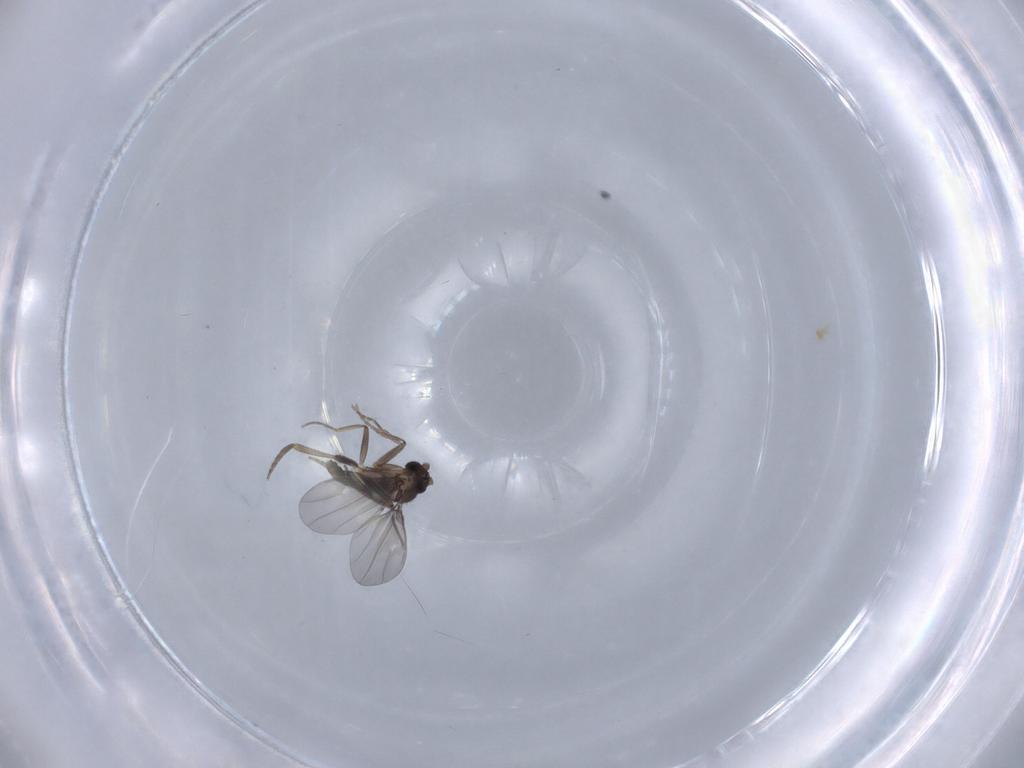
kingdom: Animalia
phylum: Arthropoda
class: Insecta
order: Diptera
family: Phoridae
